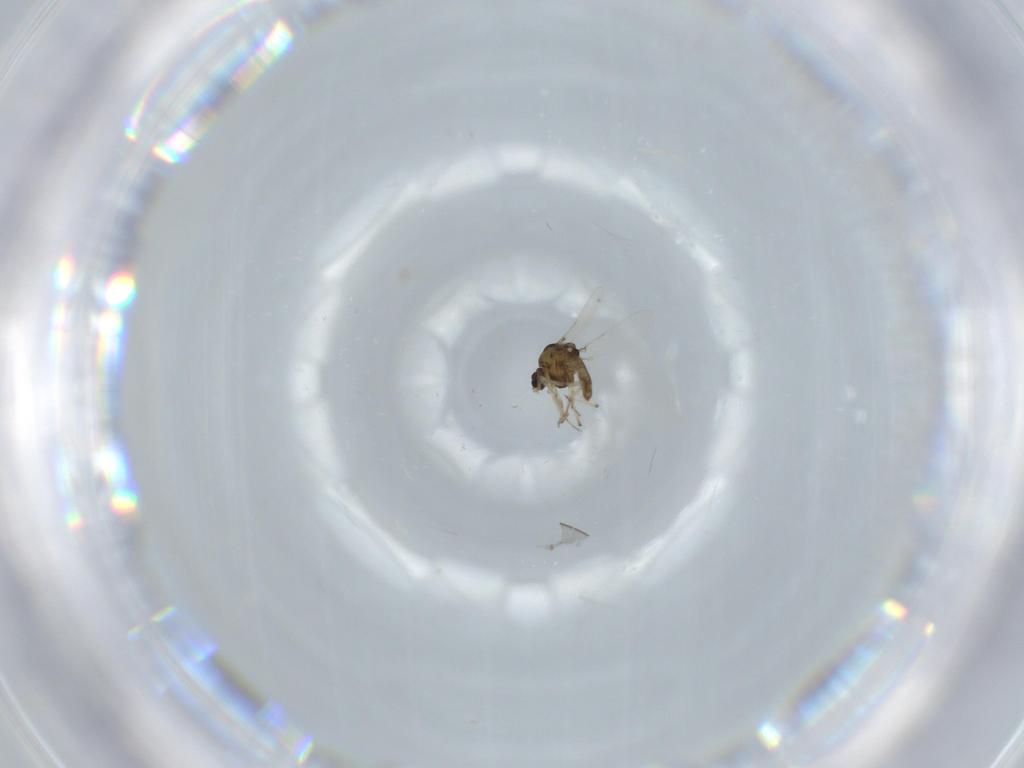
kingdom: Animalia
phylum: Arthropoda
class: Insecta
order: Diptera
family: Chironomidae
